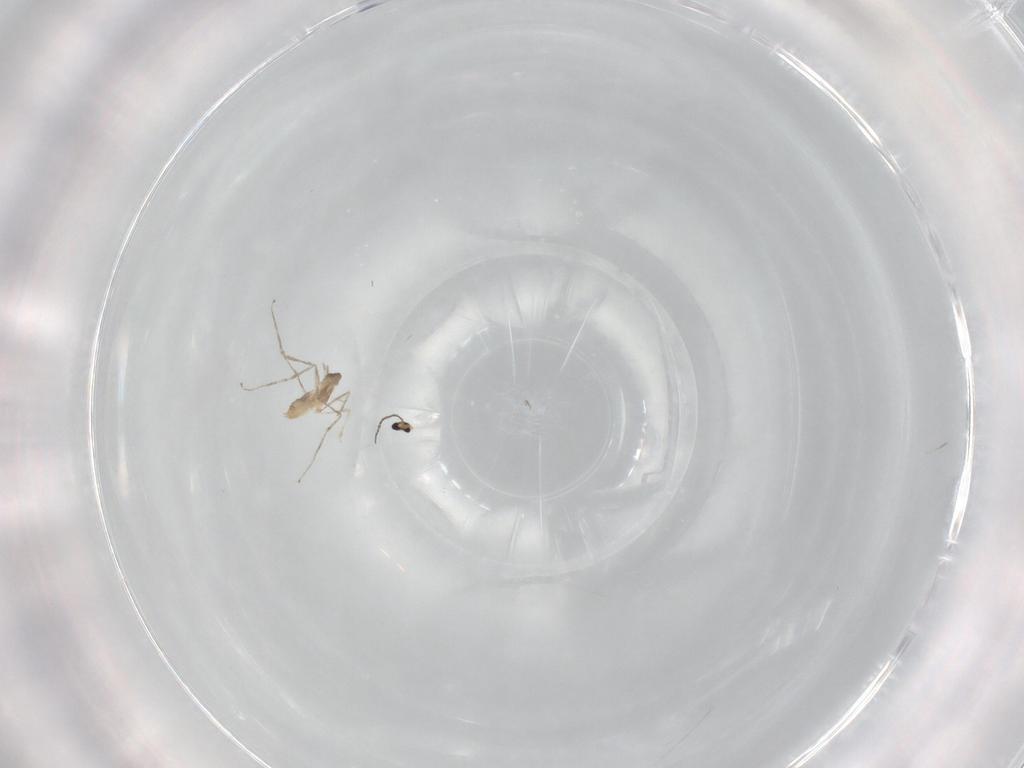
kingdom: Animalia
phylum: Arthropoda
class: Insecta
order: Diptera
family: Cecidomyiidae
